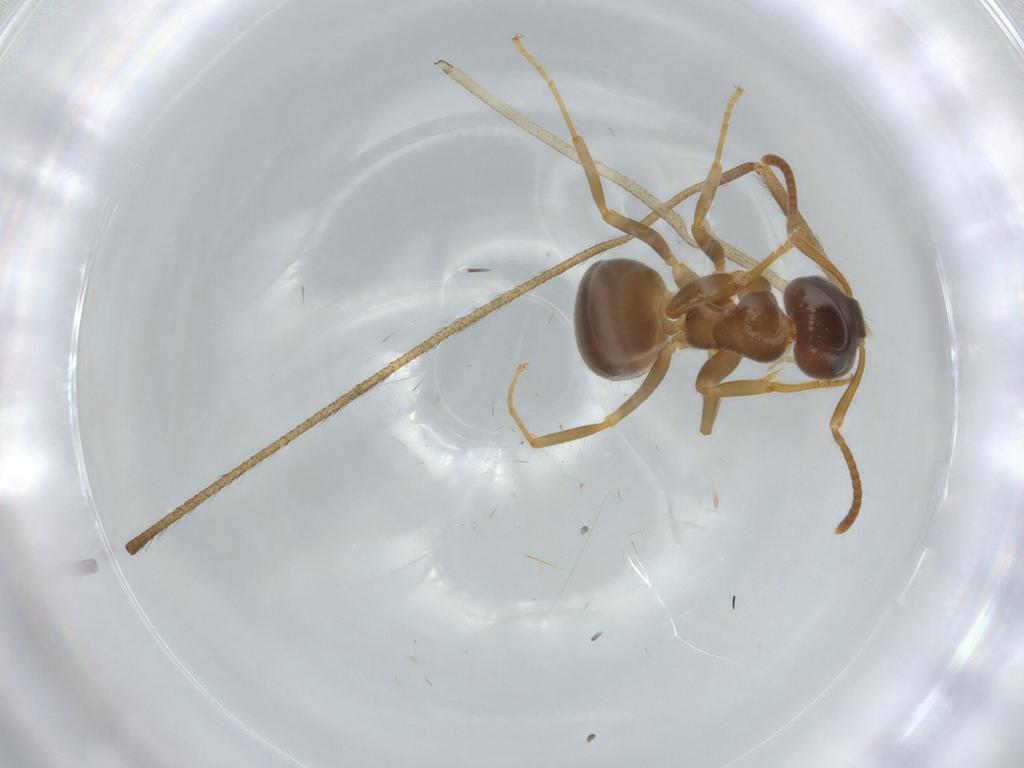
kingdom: Animalia
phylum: Arthropoda
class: Insecta
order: Hymenoptera
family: Formicidae
